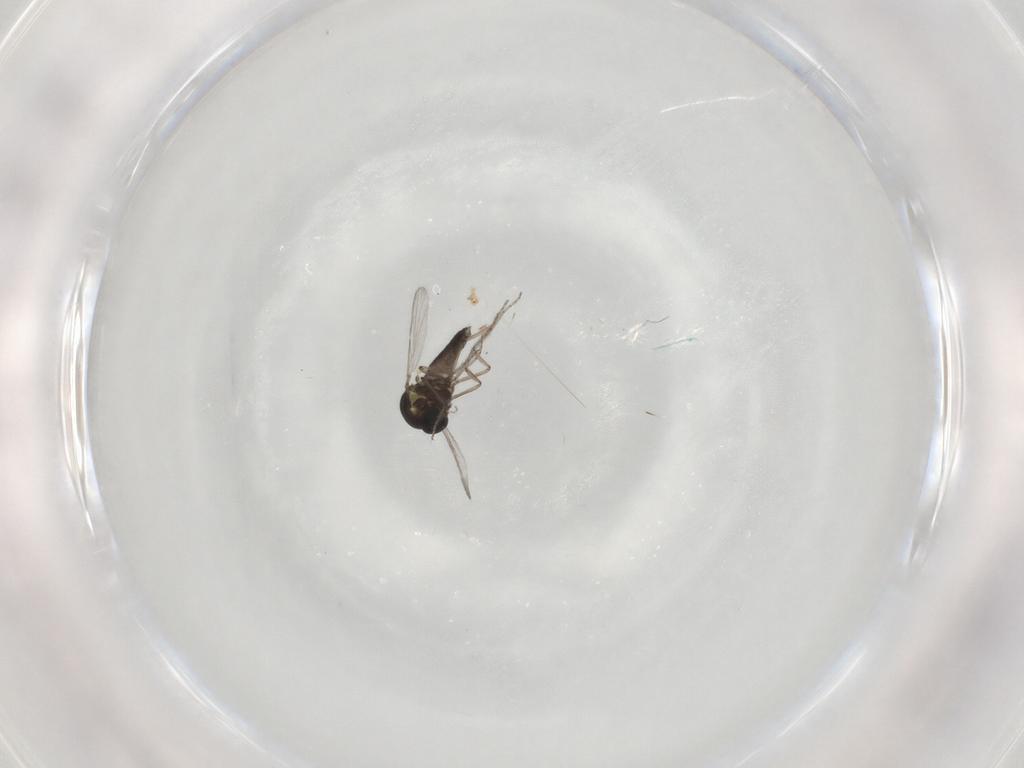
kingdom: Animalia
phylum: Arthropoda
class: Insecta
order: Diptera
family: Ceratopogonidae
